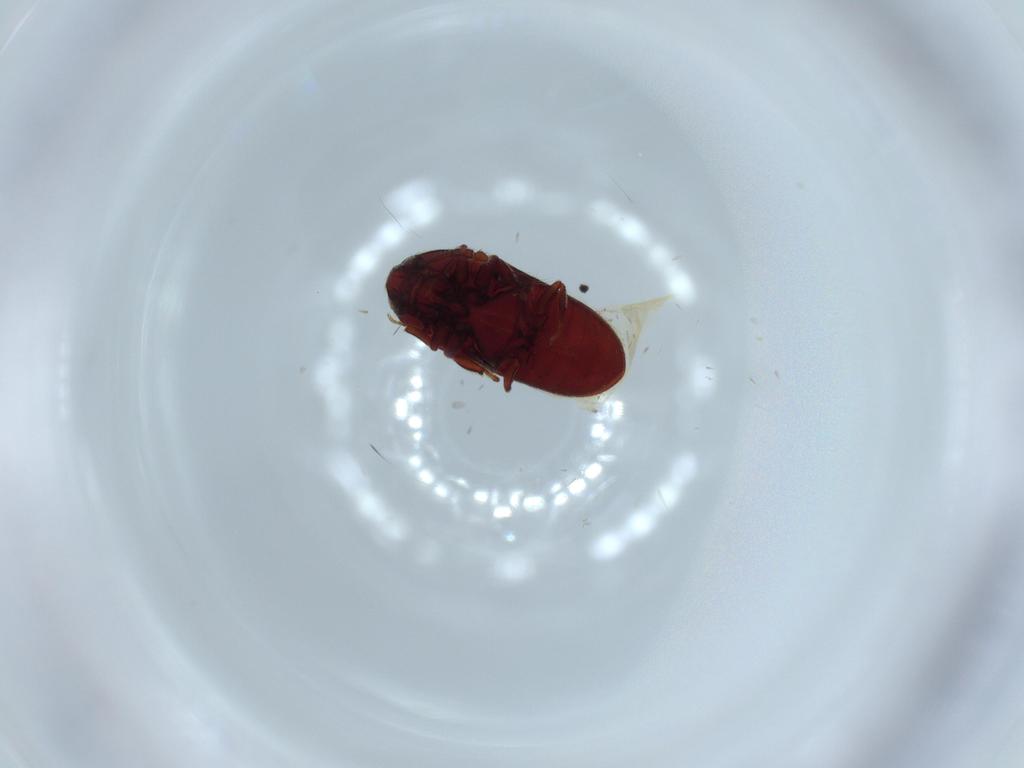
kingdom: Animalia
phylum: Arthropoda
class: Insecta
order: Coleoptera
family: Throscidae
